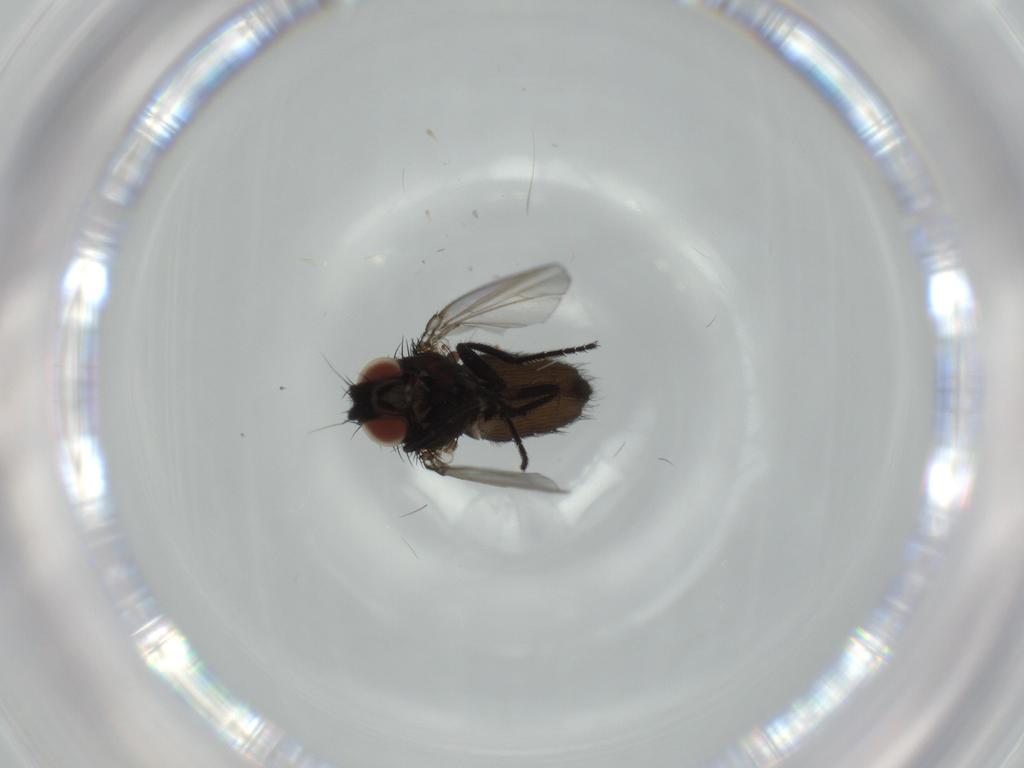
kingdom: Animalia
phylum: Arthropoda
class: Insecta
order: Diptera
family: Milichiidae
